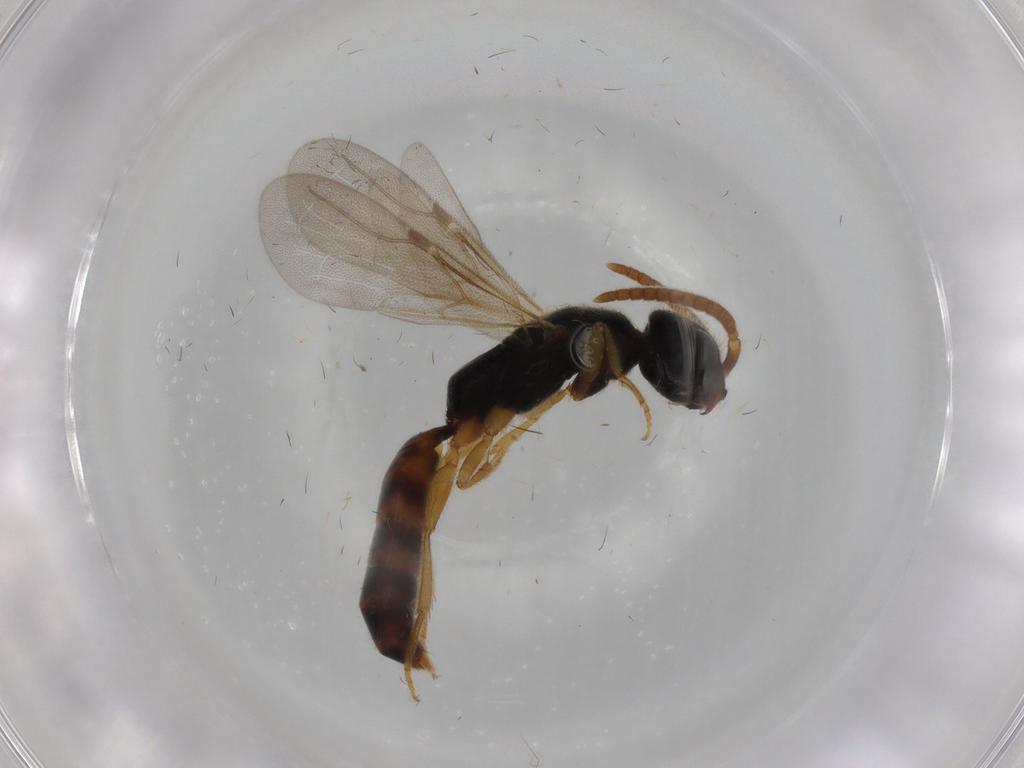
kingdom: Animalia
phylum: Arthropoda
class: Insecta
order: Hymenoptera
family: Bethylidae
